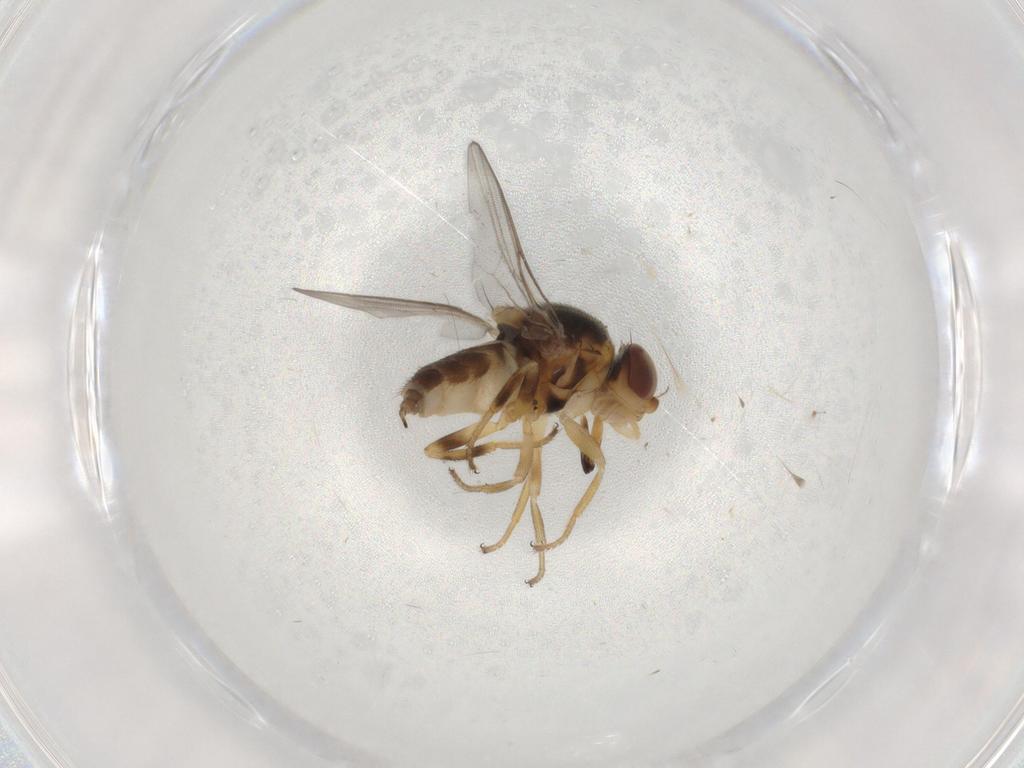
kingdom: Animalia
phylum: Arthropoda
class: Insecta
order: Diptera
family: Chloropidae
